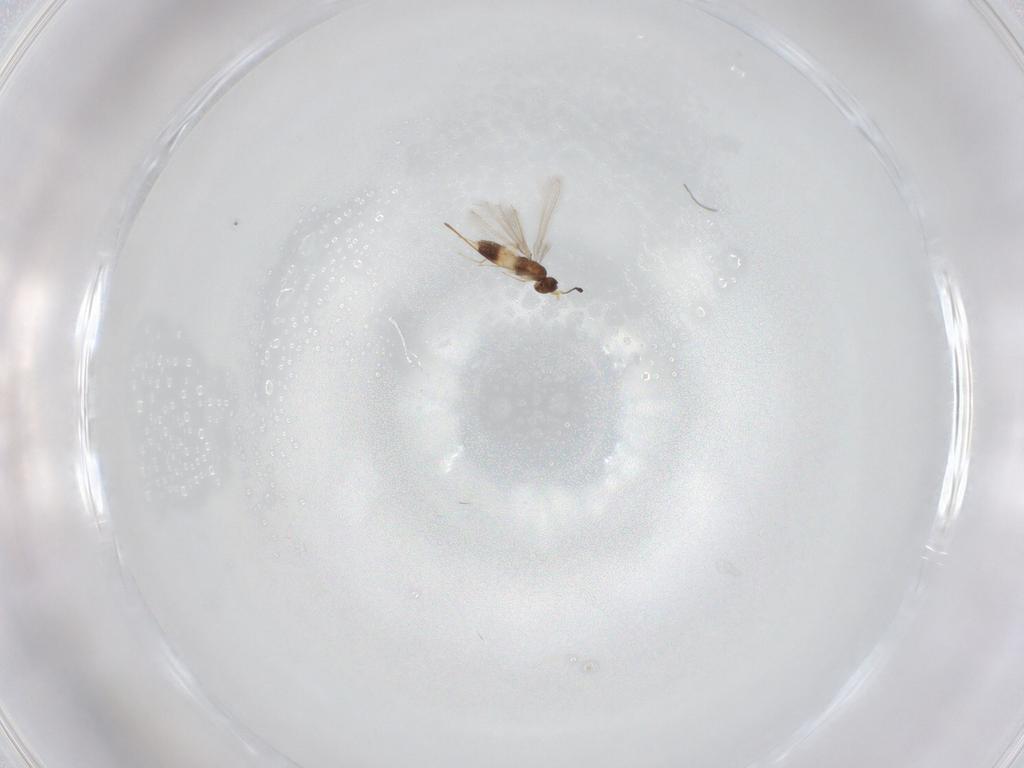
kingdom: Animalia
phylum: Arthropoda
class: Insecta
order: Hymenoptera
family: Mymaridae
